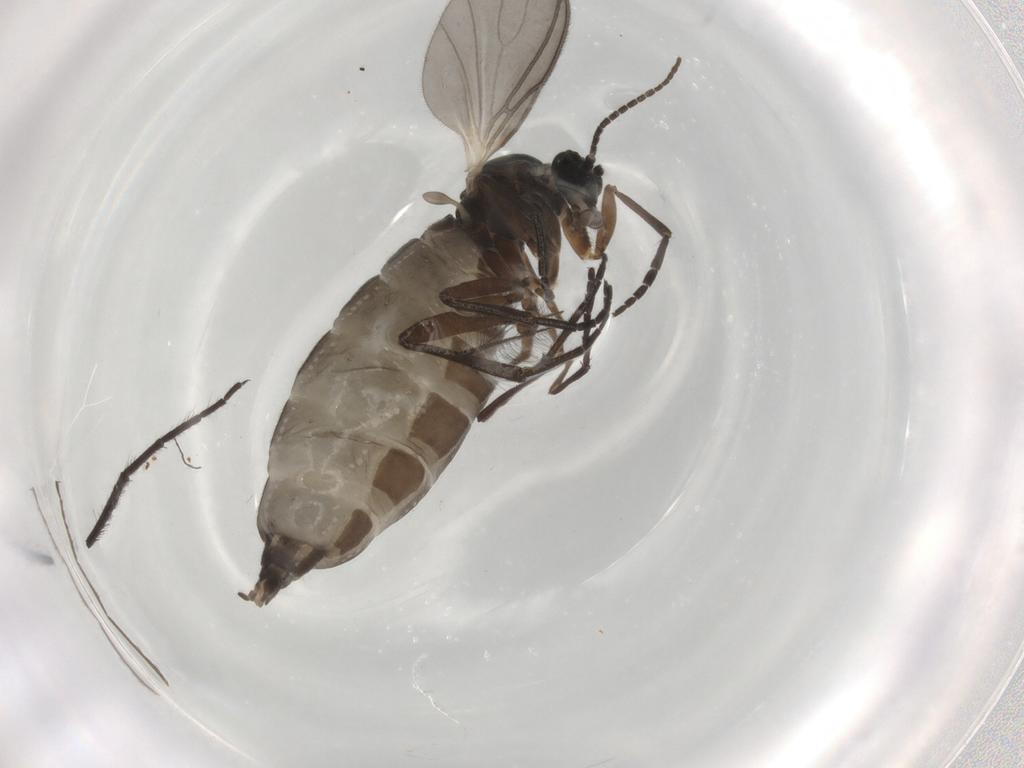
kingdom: Animalia
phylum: Arthropoda
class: Insecta
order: Diptera
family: Sciaridae
